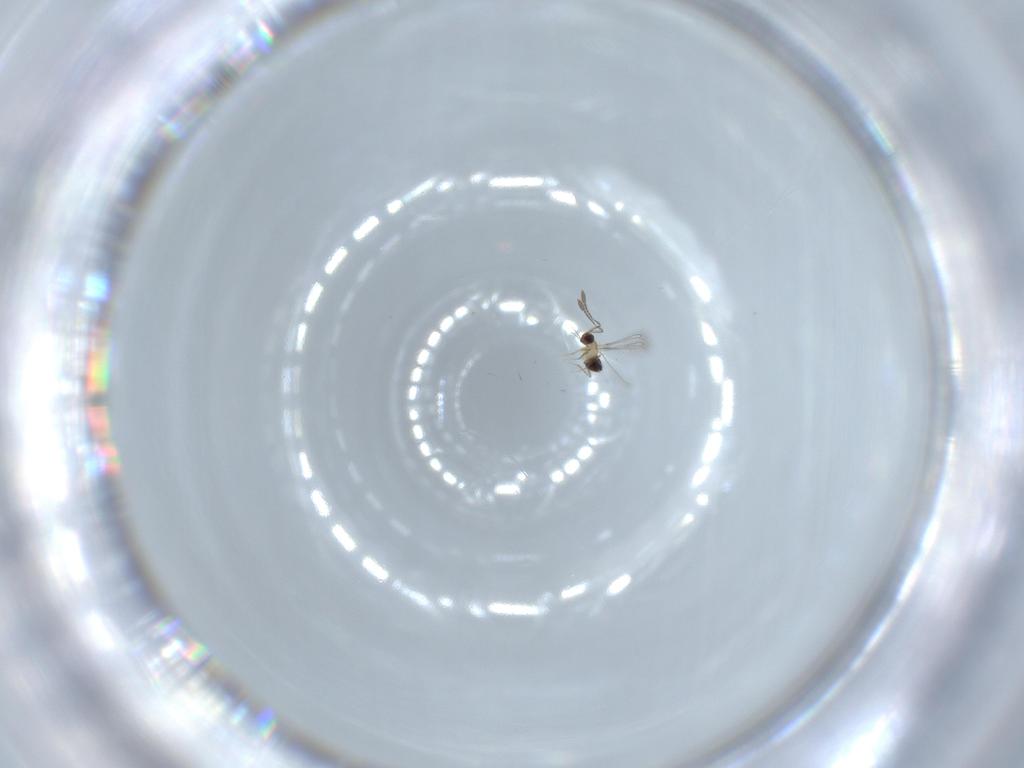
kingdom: Animalia
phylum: Arthropoda
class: Insecta
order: Hymenoptera
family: Mymaridae
